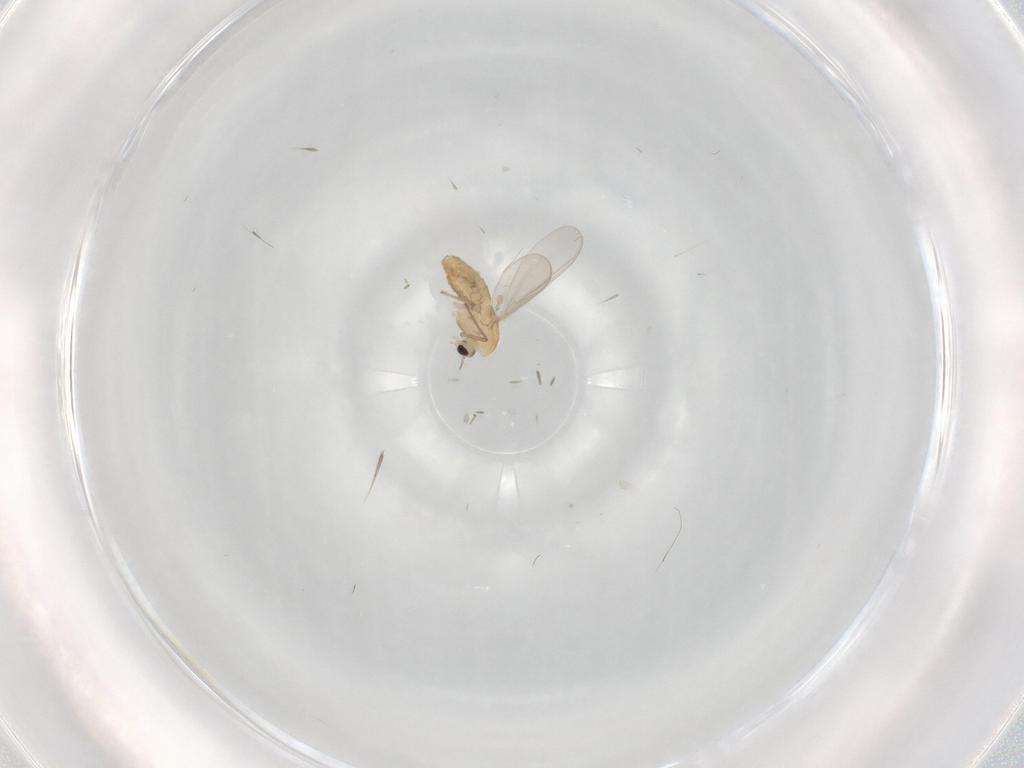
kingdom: Animalia
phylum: Arthropoda
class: Insecta
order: Diptera
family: Chironomidae
